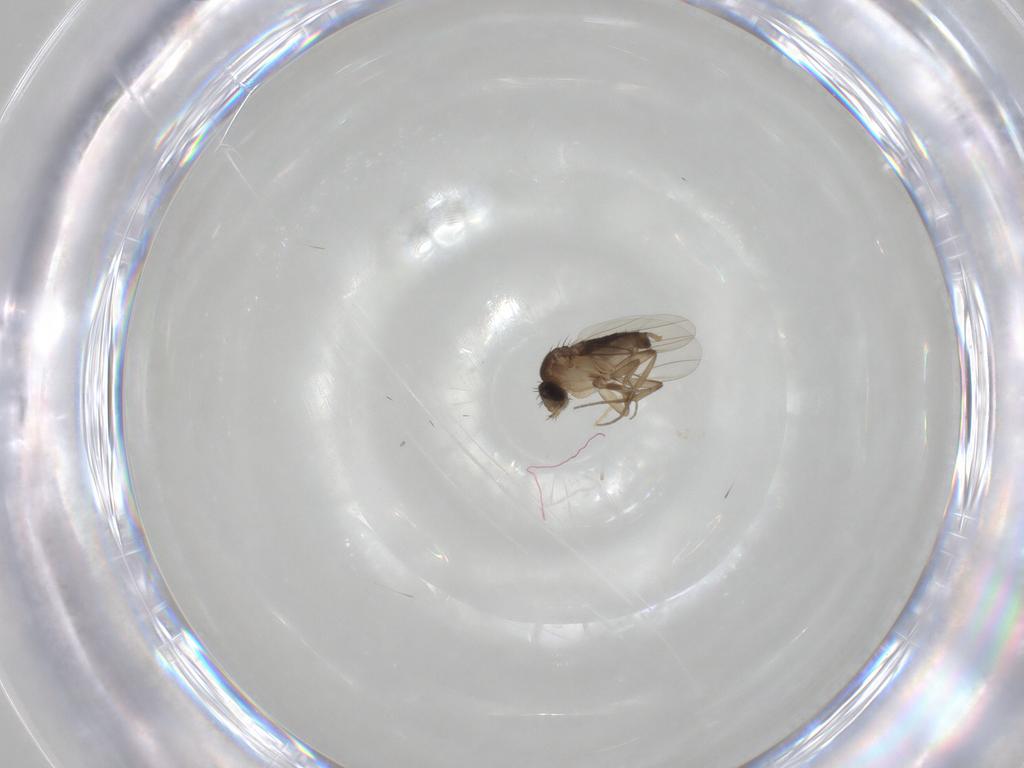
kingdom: Animalia
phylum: Arthropoda
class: Insecta
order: Diptera
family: Phoridae
